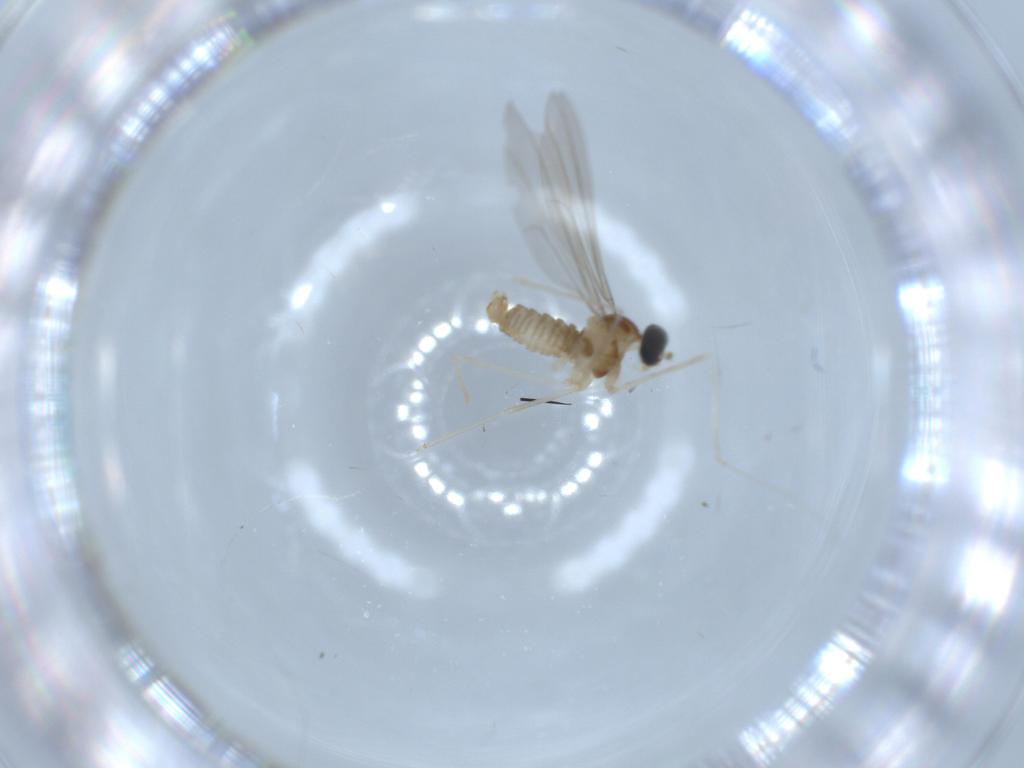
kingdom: Animalia
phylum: Arthropoda
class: Insecta
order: Diptera
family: Cecidomyiidae
